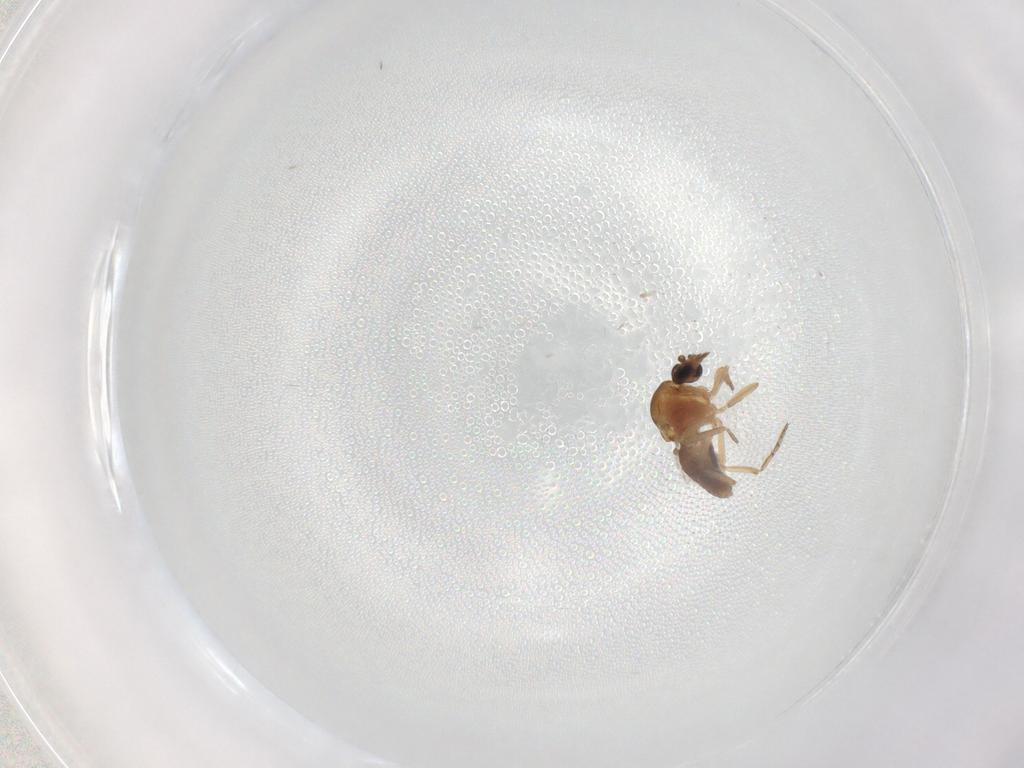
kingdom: Animalia
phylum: Arthropoda
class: Insecta
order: Diptera
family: Ceratopogonidae
